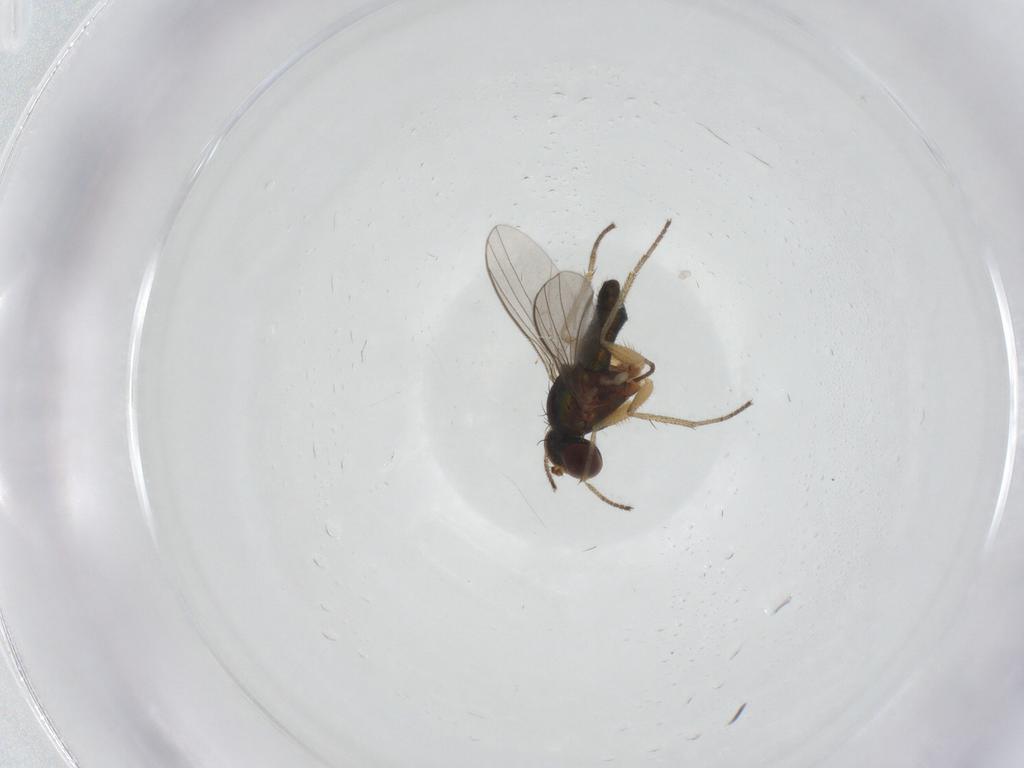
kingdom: Animalia
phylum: Arthropoda
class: Insecta
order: Diptera
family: Dolichopodidae
